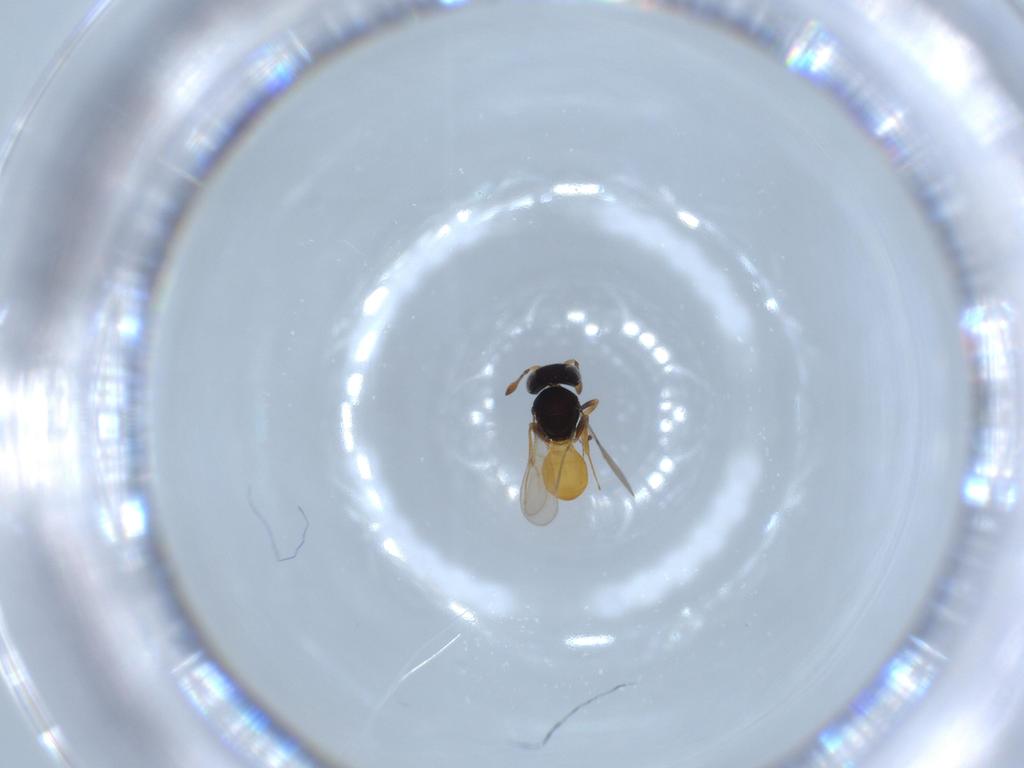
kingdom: Animalia
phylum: Arthropoda
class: Insecta
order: Hymenoptera
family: Scelionidae
